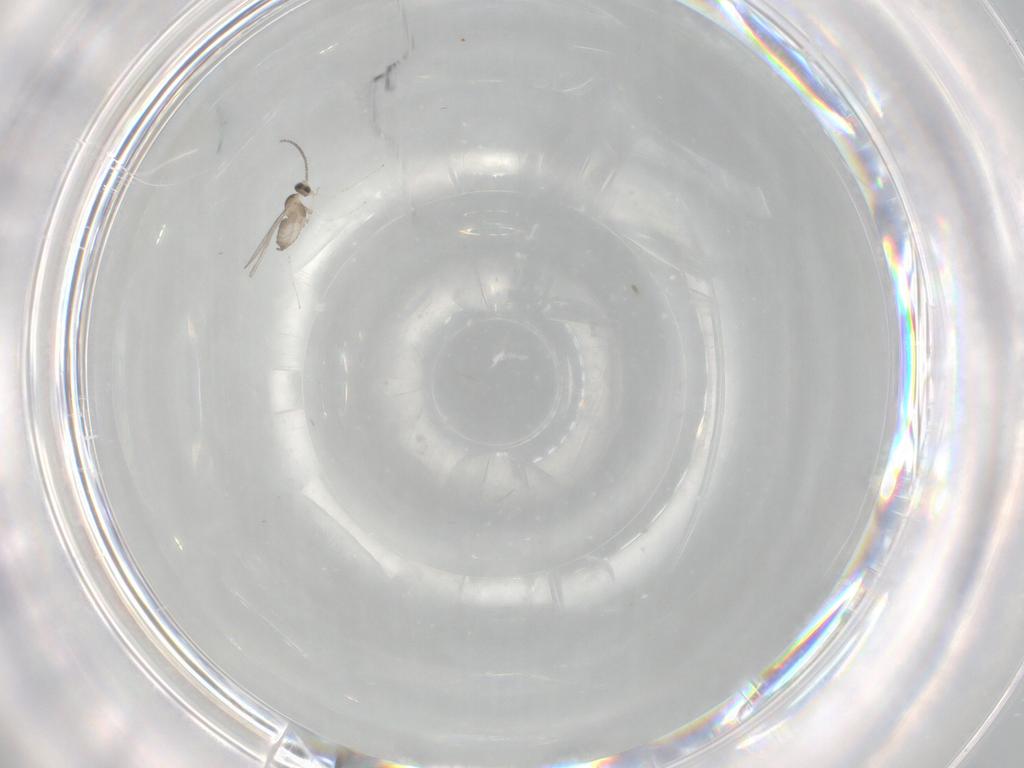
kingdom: Animalia
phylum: Arthropoda
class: Insecta
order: Diptera
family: Cecidomyiidae
